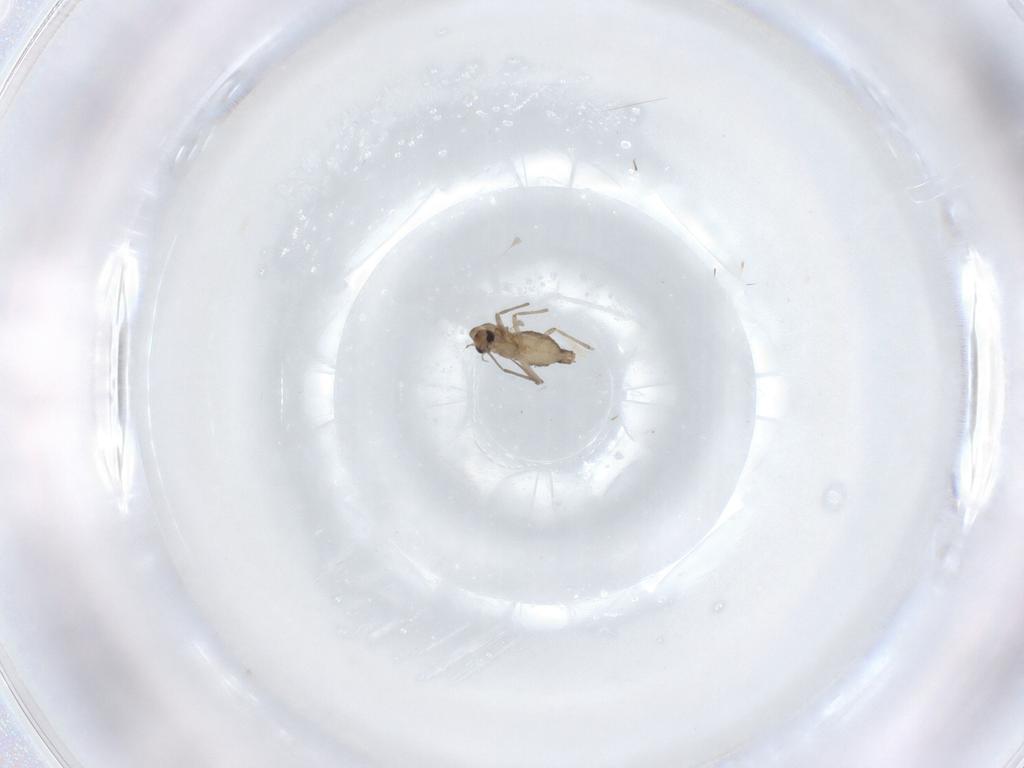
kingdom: Animalia
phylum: Arthropoda
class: Insecta
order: Diptera
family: Chironomidae
